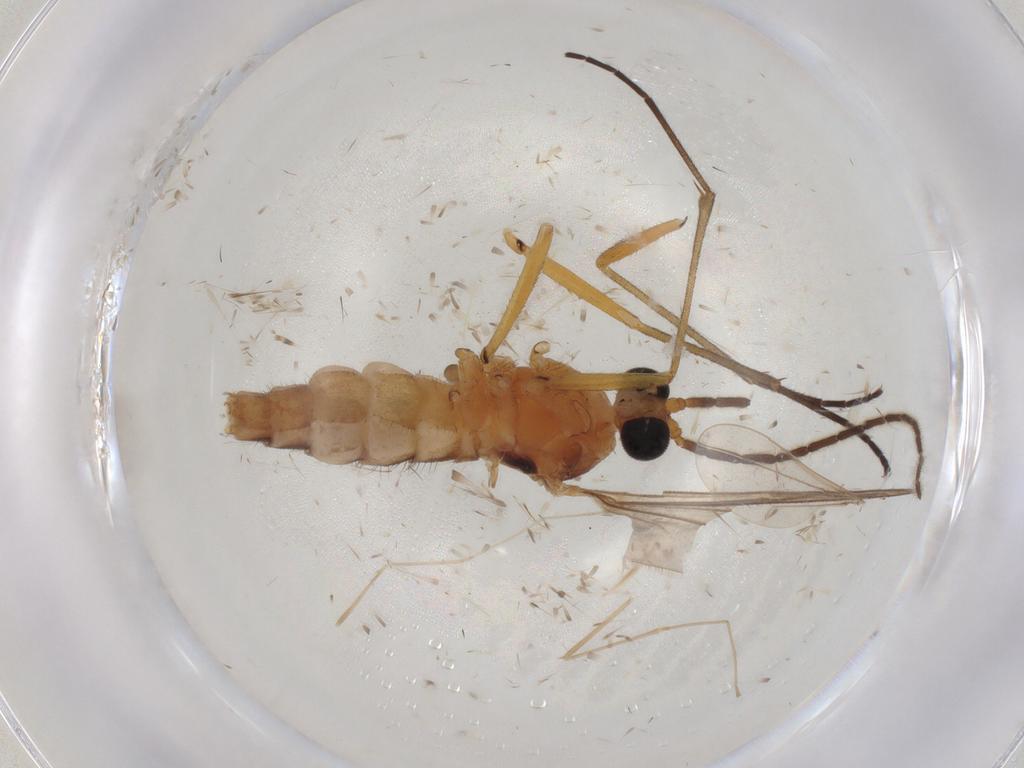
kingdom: Animalia
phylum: Arthropoda
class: Insecta
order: Diptera
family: Sciaridae
